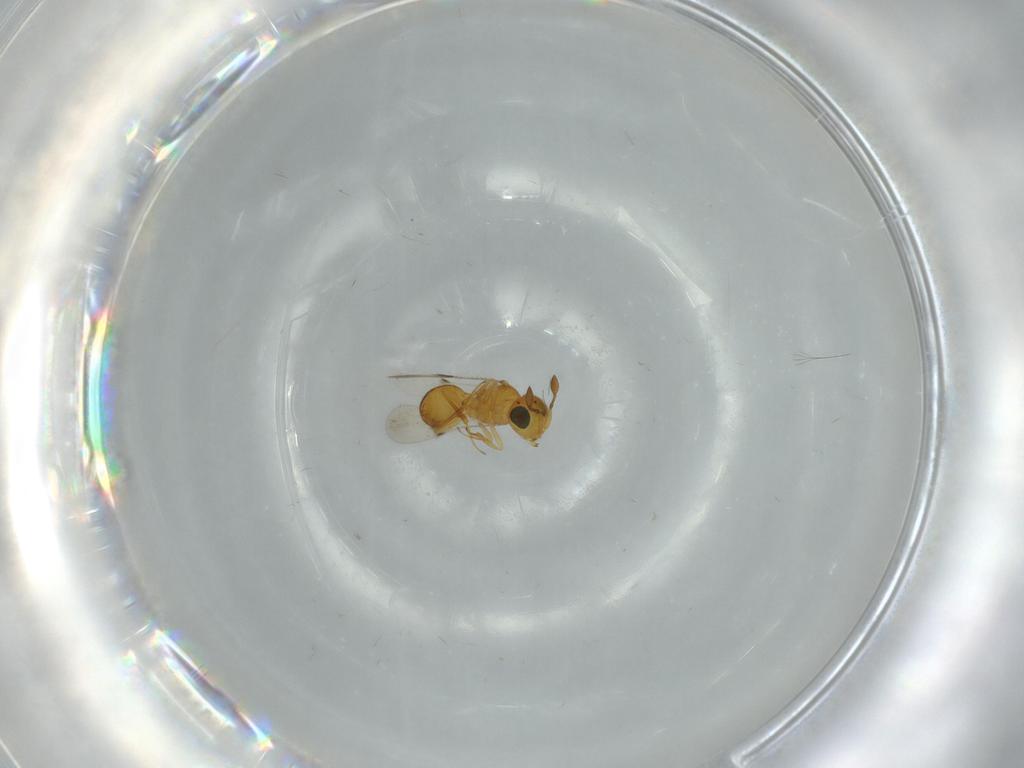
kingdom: Animalia
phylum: Arthropoda
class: Insecta
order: Hymenoptera
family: Scelionidae
